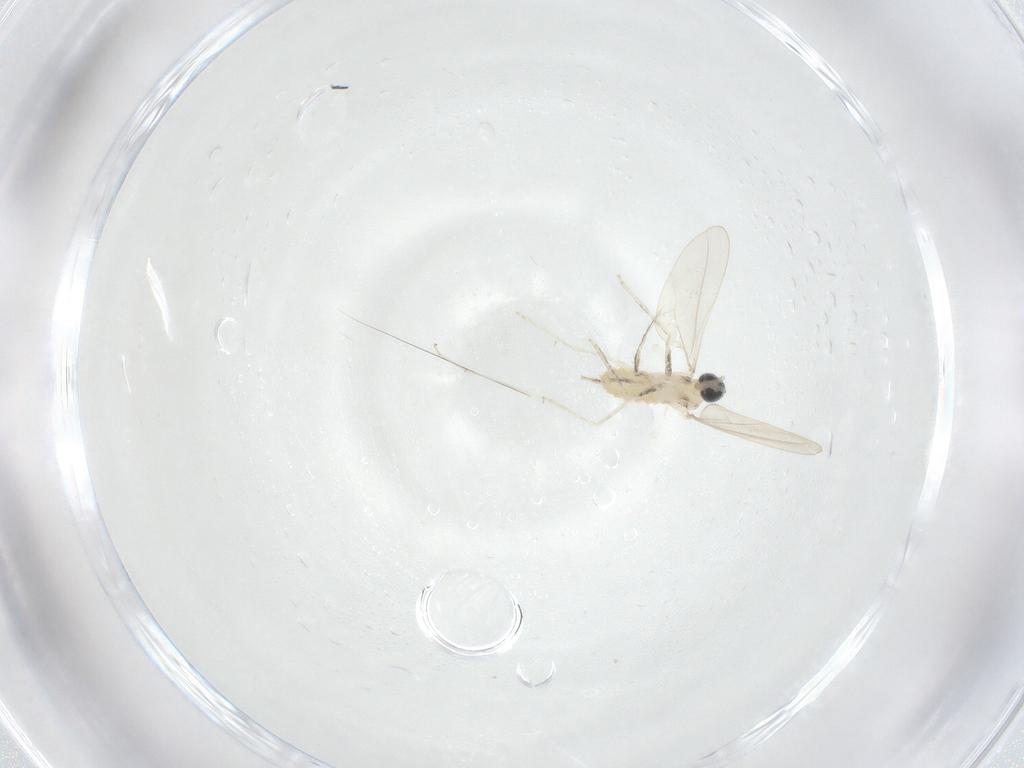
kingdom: Animalia
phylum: Arthropoda
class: Insecta
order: Diptera
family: Cecidomyiidae
